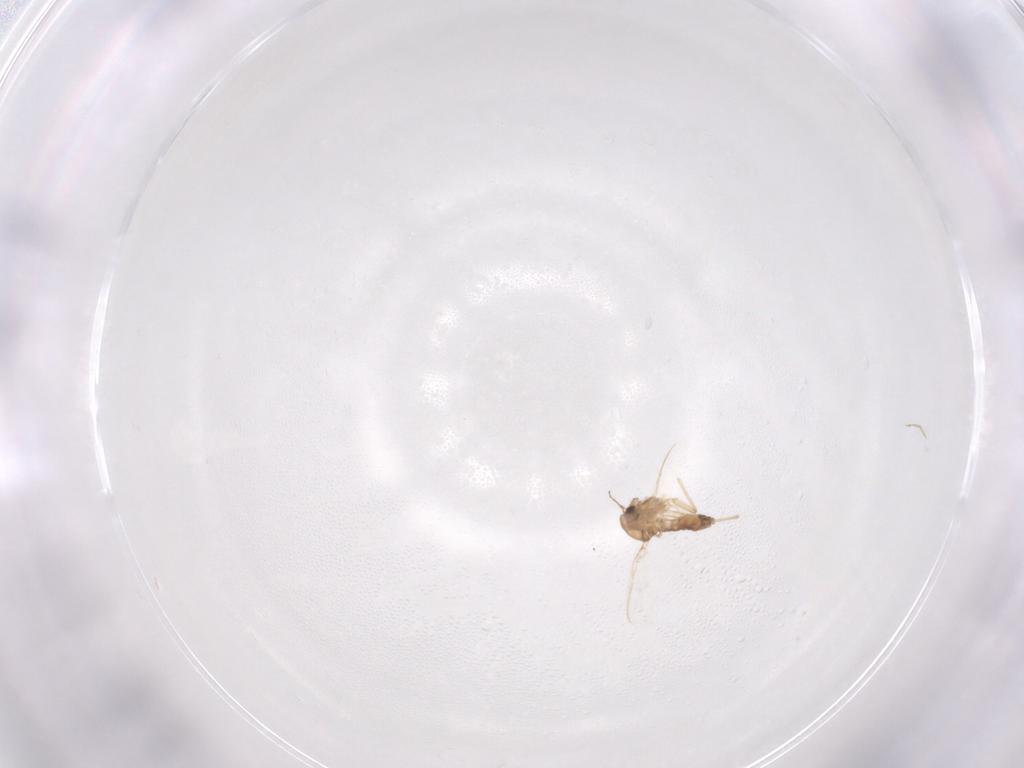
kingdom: Animalia
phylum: Arthropoda
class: Insecta
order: Diptera
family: Chironomidae
